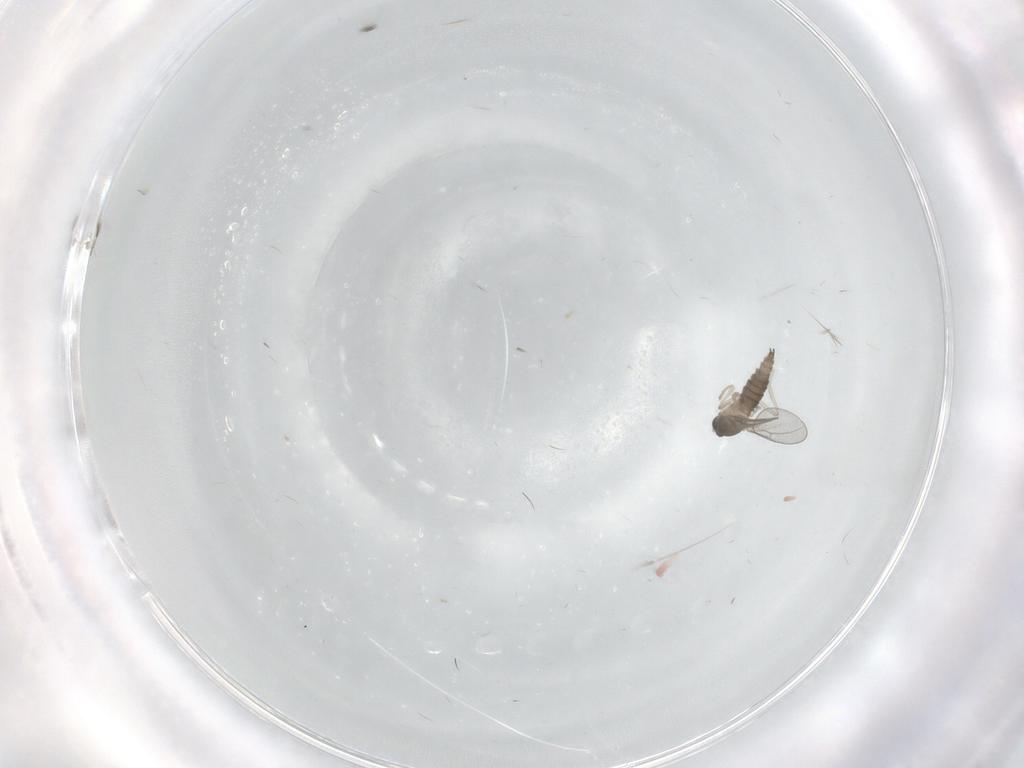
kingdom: Animalia
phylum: Arthropoda
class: Insecta
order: Diptera
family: Cecidomyiidae
